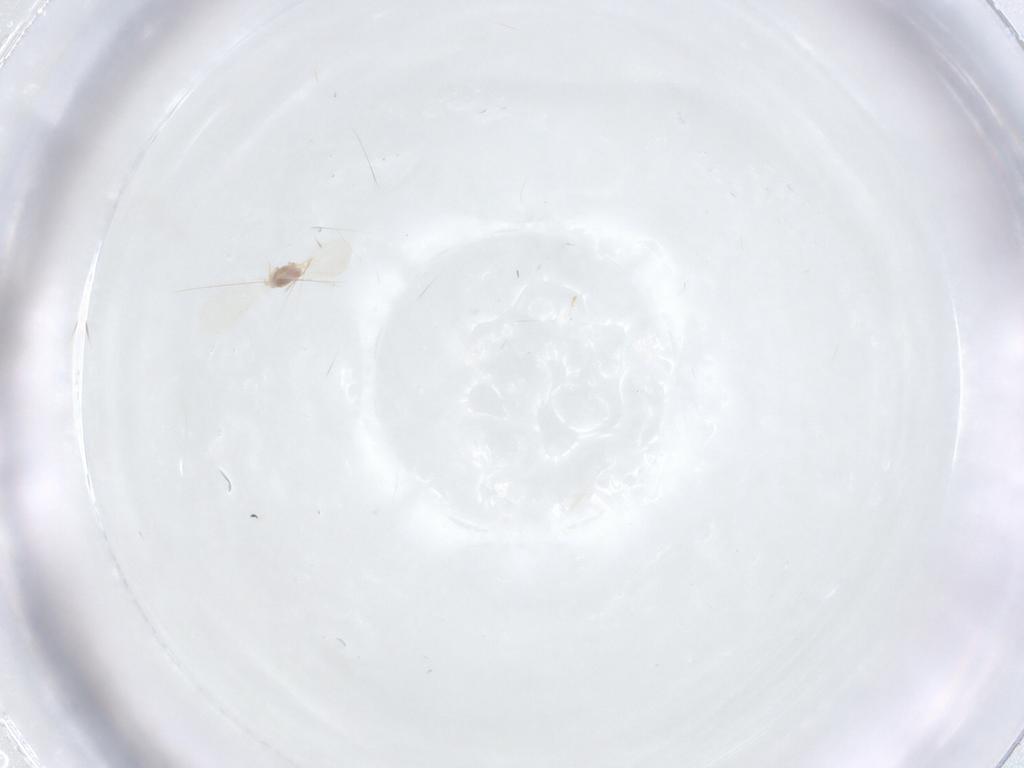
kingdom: Animalia
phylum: Arthropoda
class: Insecta
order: Hemiptera
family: Diaspididae
